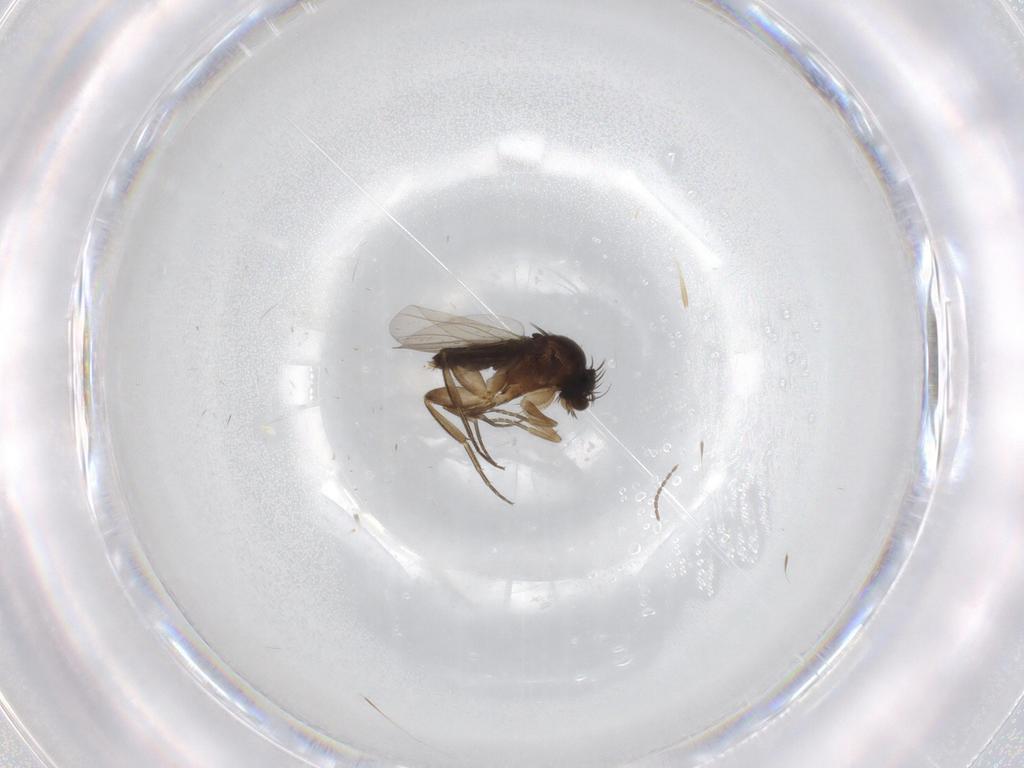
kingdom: Animalia
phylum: Arthropoda
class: Insecta
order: Diptera
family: Phoridae
